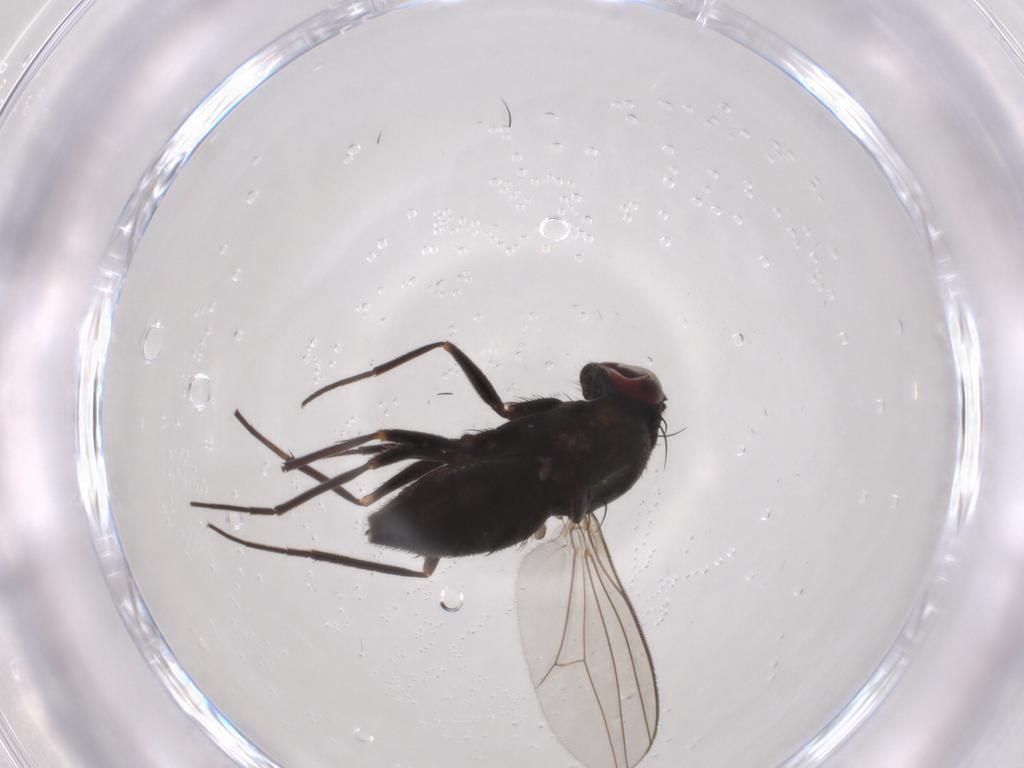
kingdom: Animalia
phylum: Arthropoda
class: Insecta
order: Diptera
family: Dolichopodidae
